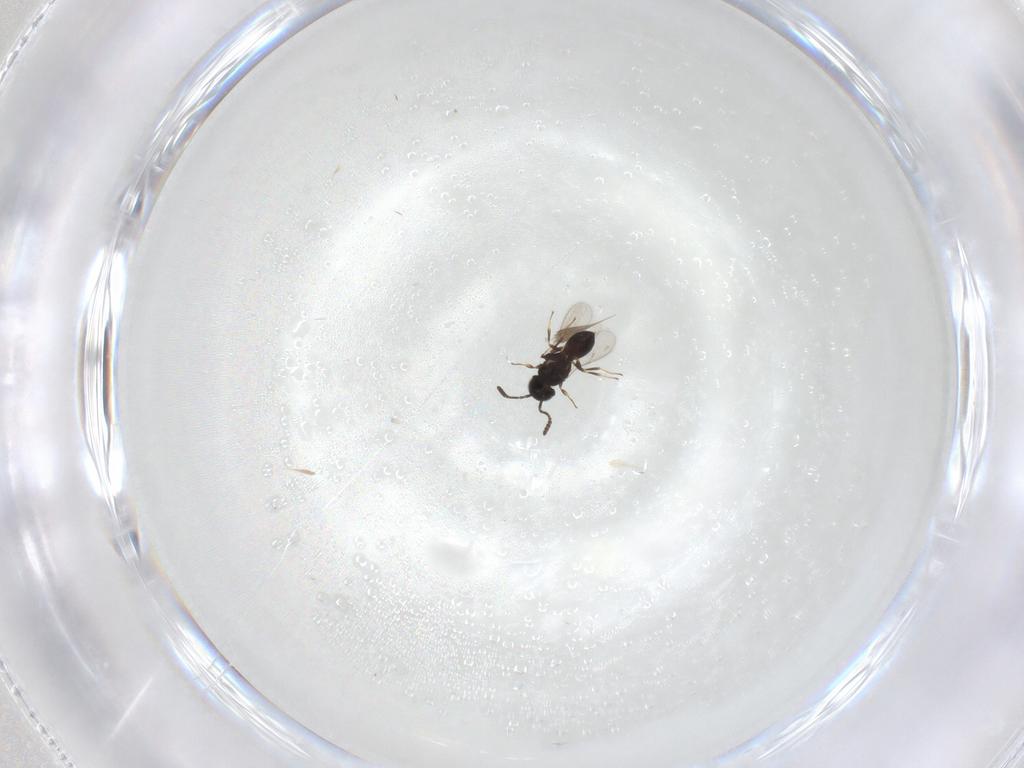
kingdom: Animalia
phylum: Arthropoda
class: Insecta
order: Hymenoptera
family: Scelionidae
